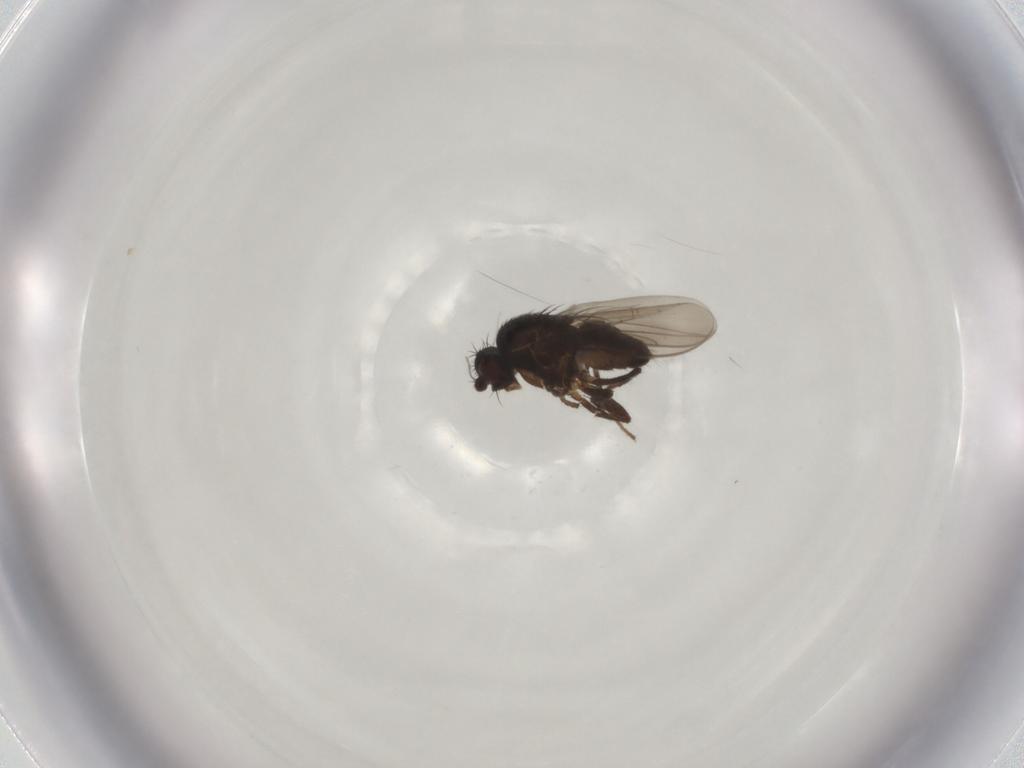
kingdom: Animalia
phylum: Arthropoda
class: Insecta
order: Diptera
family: Sphaeroceridae
